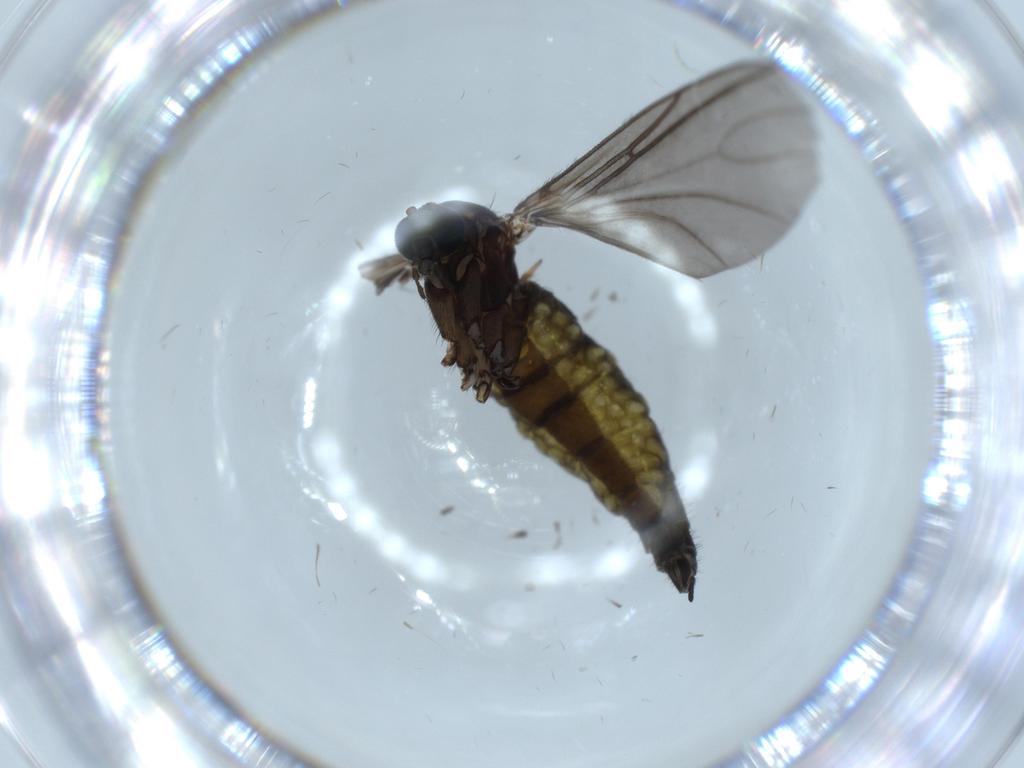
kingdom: Animalia
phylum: Arthropoda
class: Insecta
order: Diptera
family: Sciaridae
